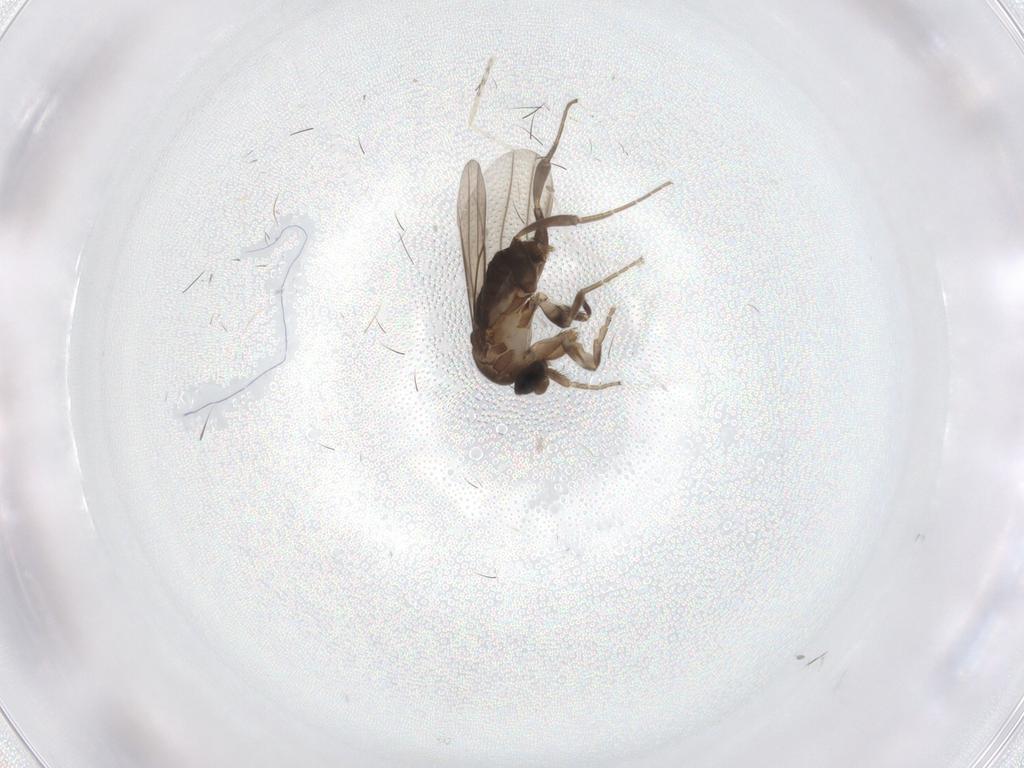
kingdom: Animalia
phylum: Arthropoda
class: Insecta
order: Diptera
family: Phoridae
